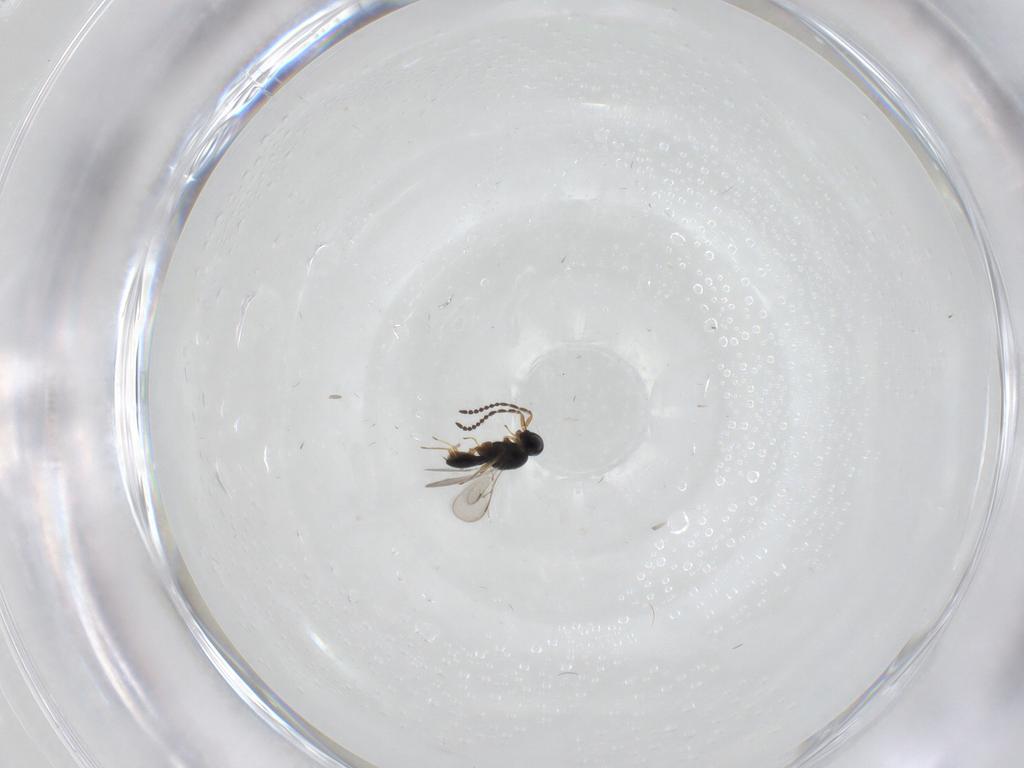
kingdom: Animalia
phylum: Arthropoda
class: Insecta
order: Hymenoptera
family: Scelionidae
